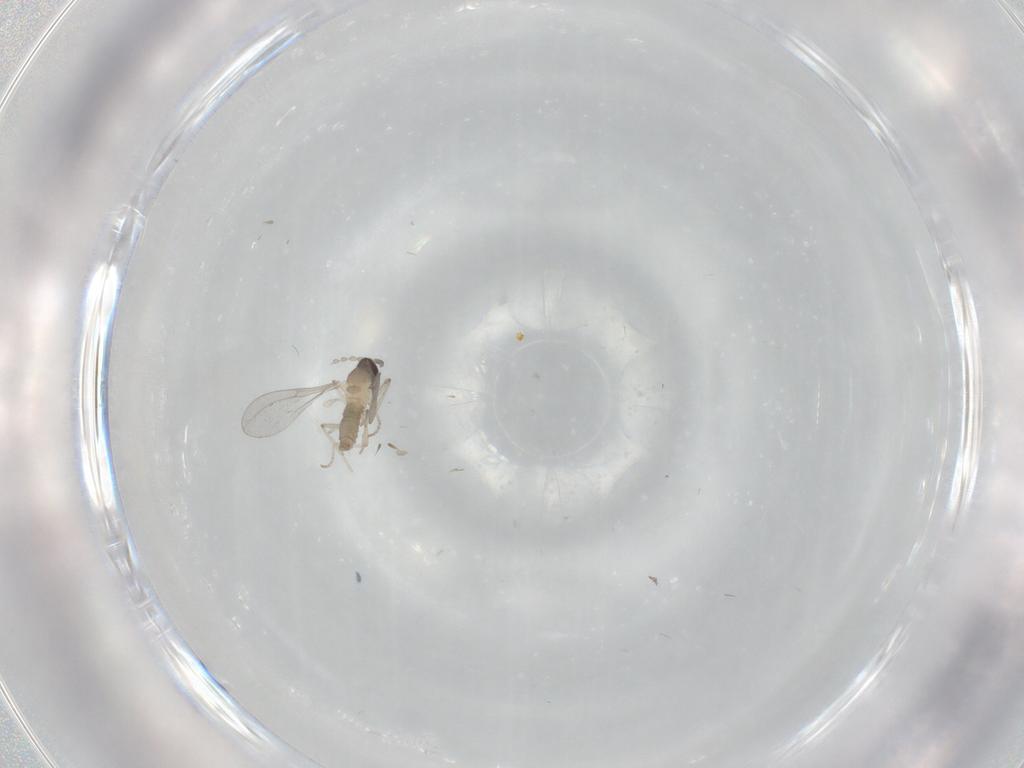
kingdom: Animalia
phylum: Arthropoda
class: Insecta
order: Diptera
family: Cecidomyiidae
